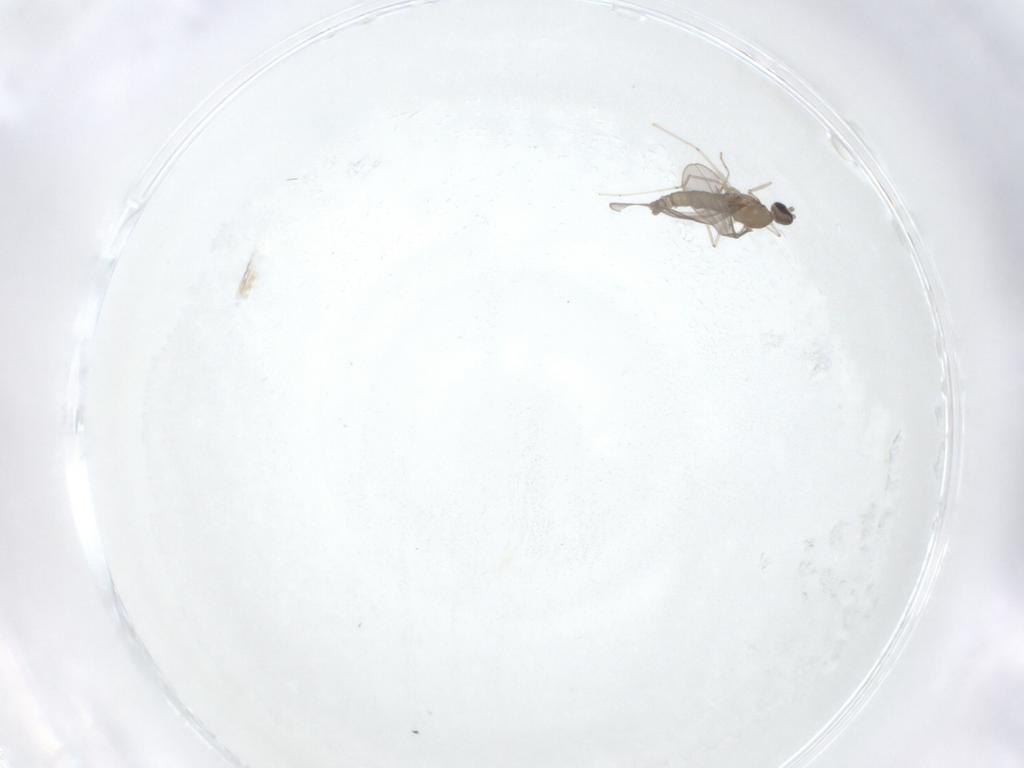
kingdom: Animalia
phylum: Arthropoda
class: Insecta
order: Diptera
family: Cecidomyiidae
